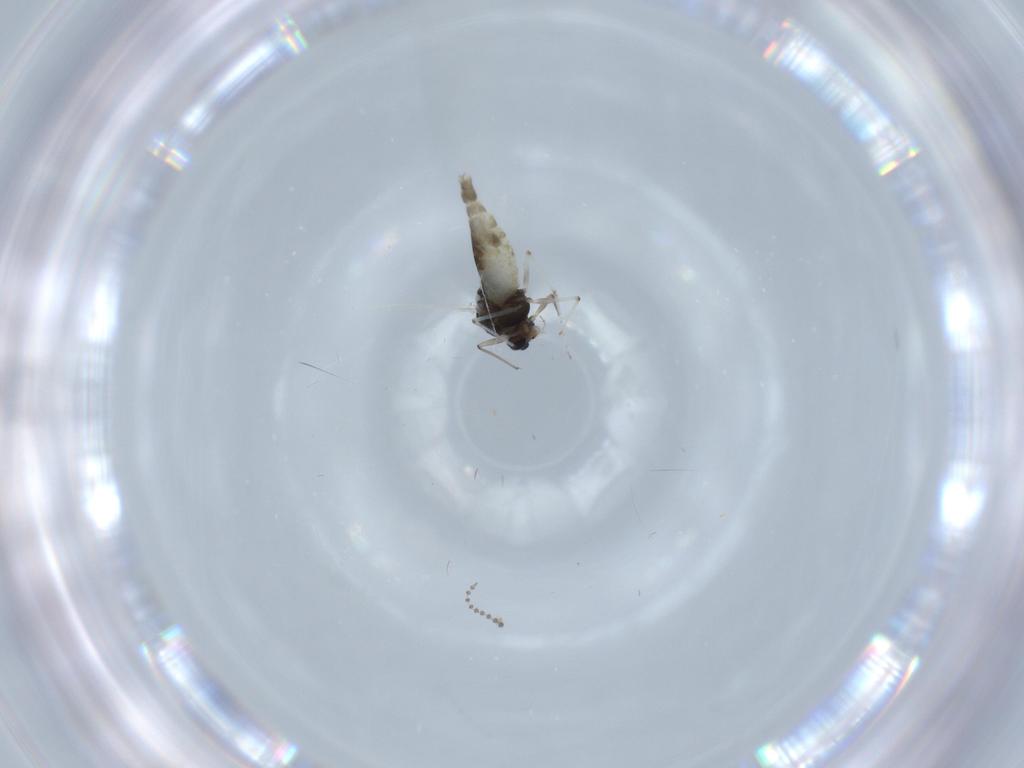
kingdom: Animalia
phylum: Arthropoda
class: Insecta
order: Diptera
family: Chironomidae
